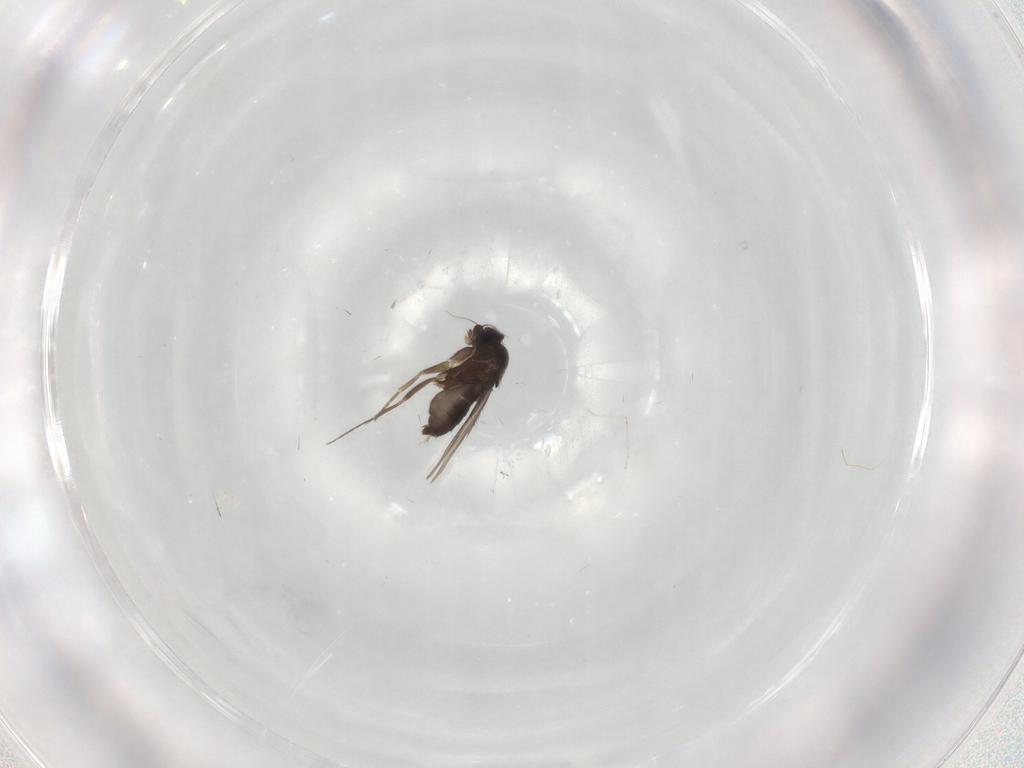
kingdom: Animalia
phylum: Arthropoda
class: Insecta
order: Diptera
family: Phoridae
